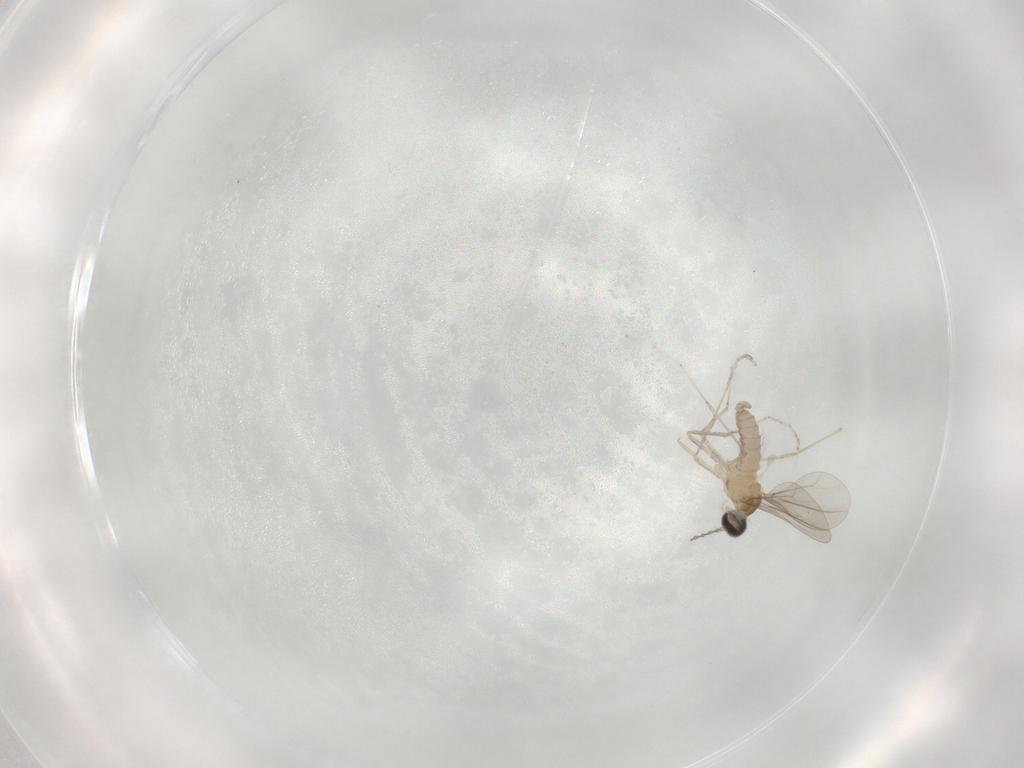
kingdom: Animalia
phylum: Arthropoda
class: Insecta
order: Diptera
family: Cecidomyiidae
